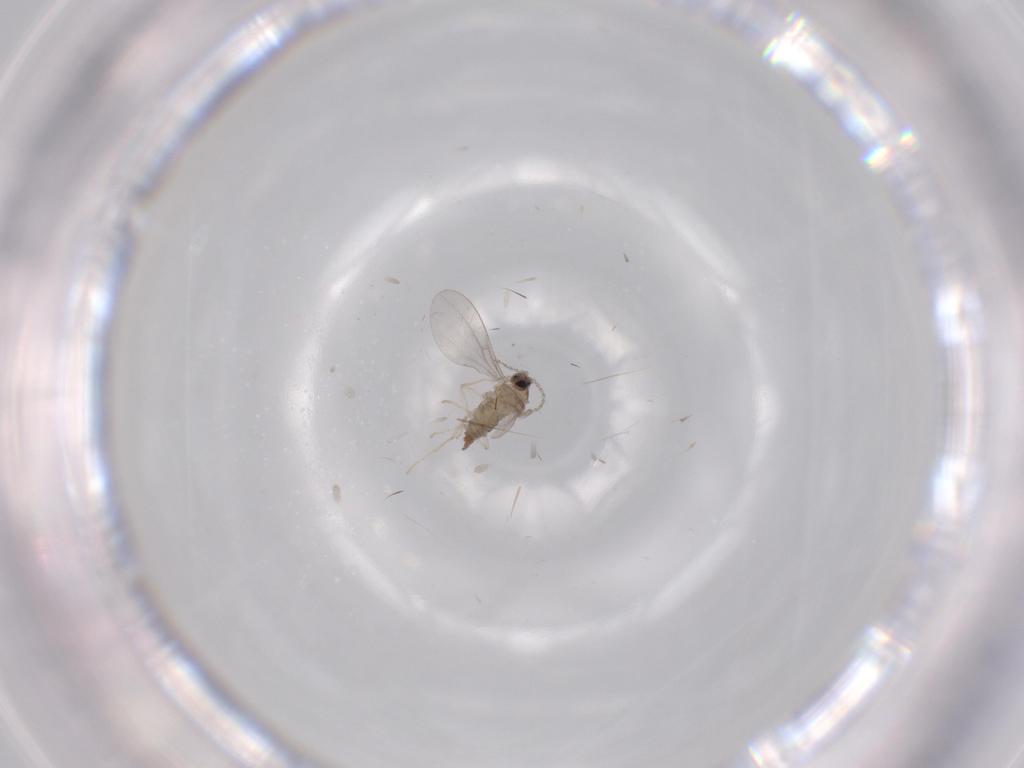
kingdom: Animalia
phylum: Arthropoda
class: Insecta
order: Diptera
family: Cecidomyiidae
